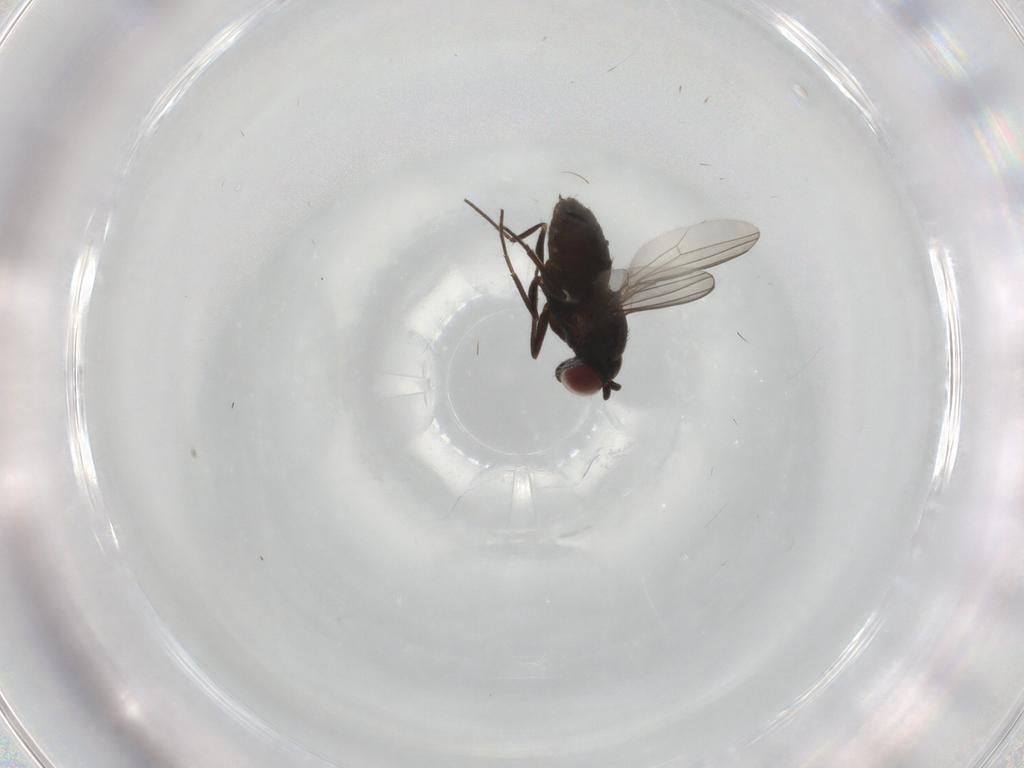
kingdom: Animalia
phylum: Arthropoda
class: Insecta
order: Diptera
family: Dolichopodidae
